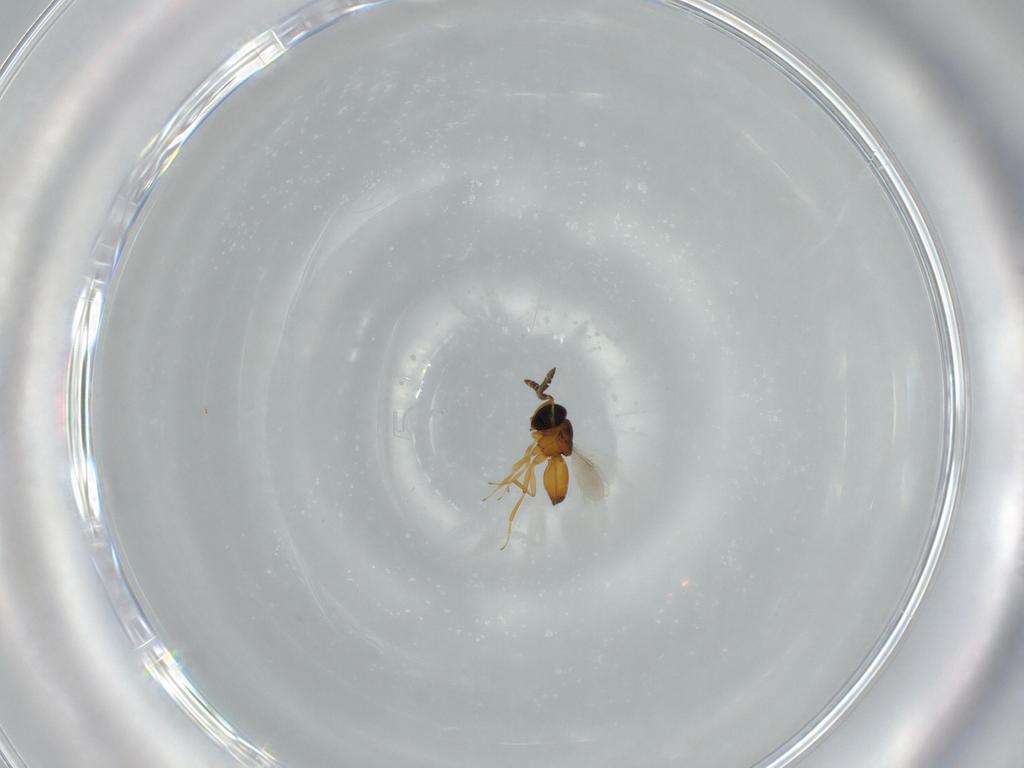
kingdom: Animalia
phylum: Arthropoda
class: Insecta
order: Hymenoptera
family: Scelionidae
